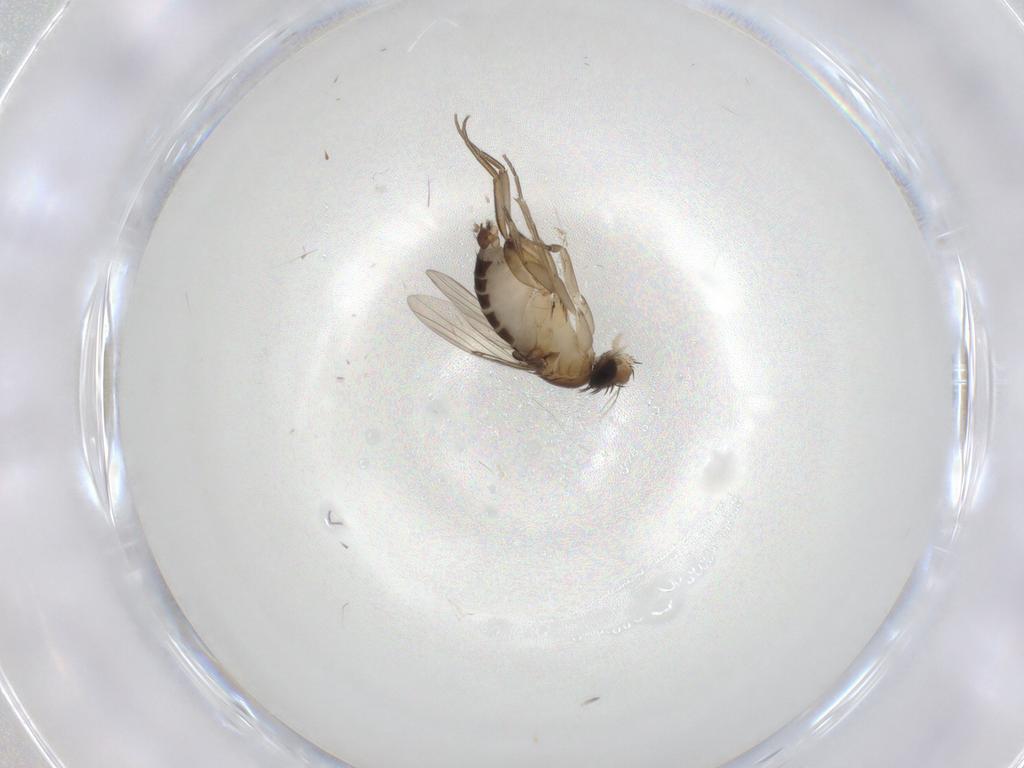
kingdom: Animalia
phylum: Arthropoda
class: Insecta
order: Diptera
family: Phoridae
